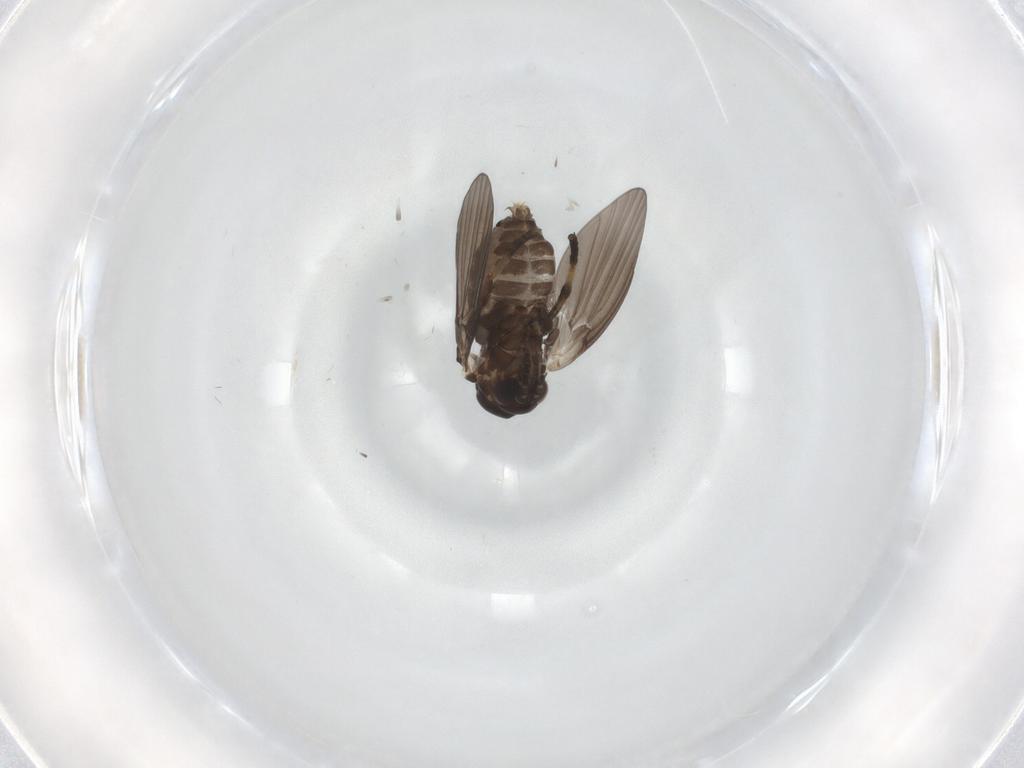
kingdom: Animalia
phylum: Arthropoda
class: Insecta
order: Diptera
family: Psychodidae
